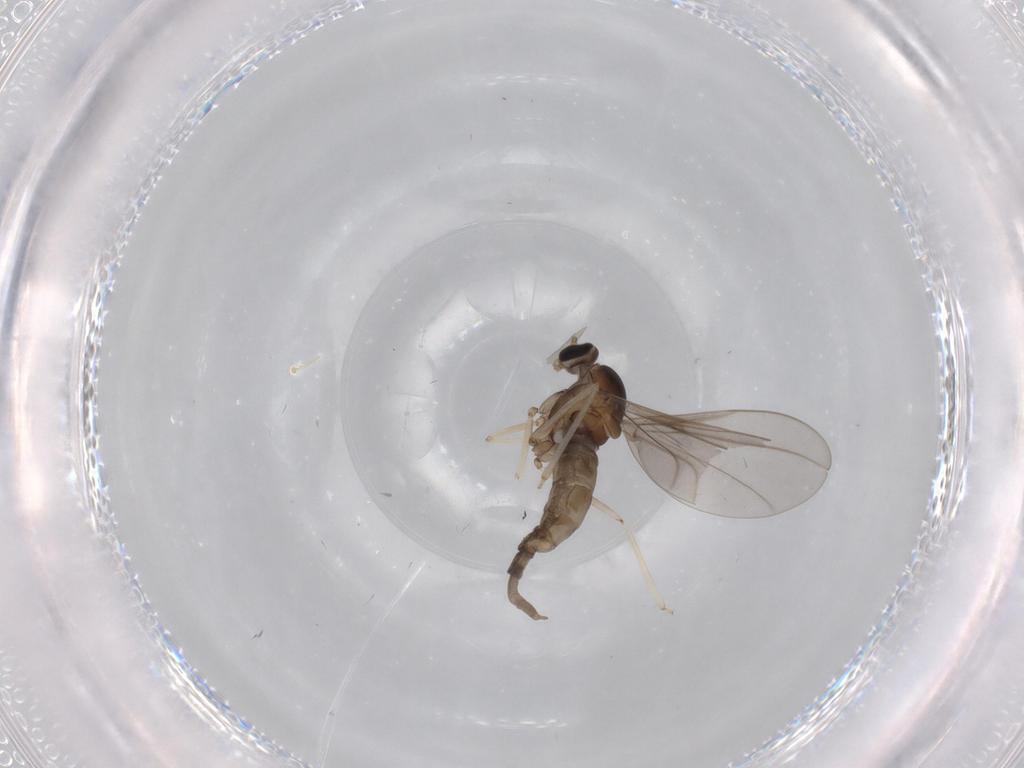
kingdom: Animalia
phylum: Arthropoda
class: Insecta
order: Diptera
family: Cecidomyiidae
